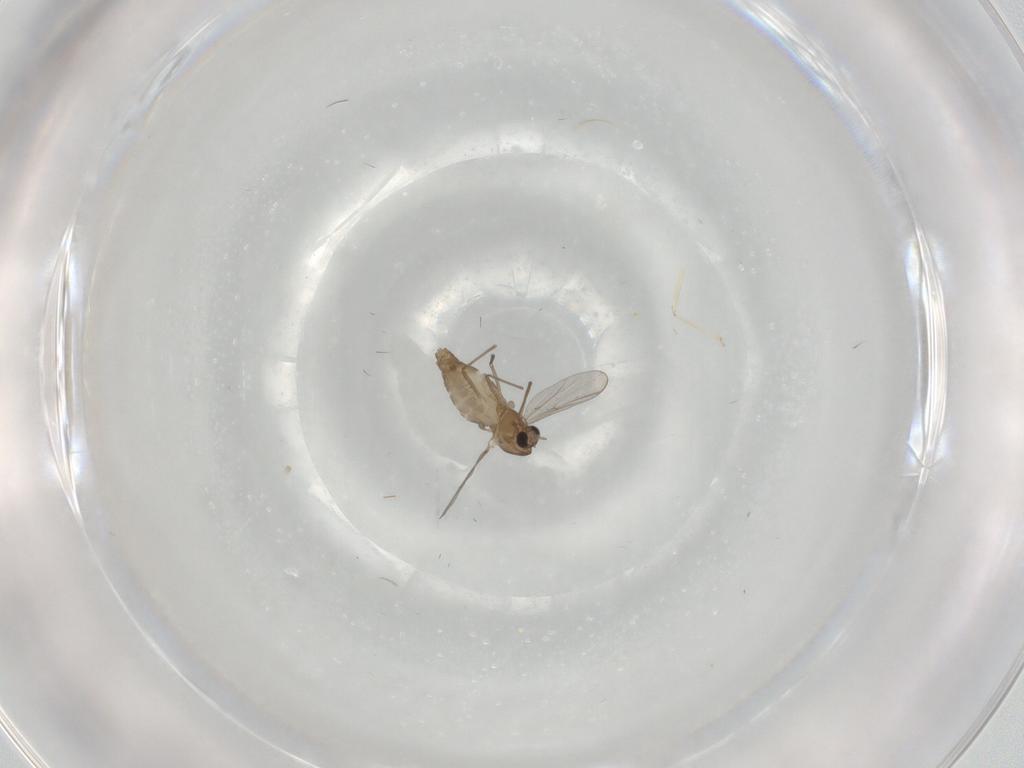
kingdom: Animalia
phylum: Arthropoda
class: Insecta
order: Diptera
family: Chironomidae
